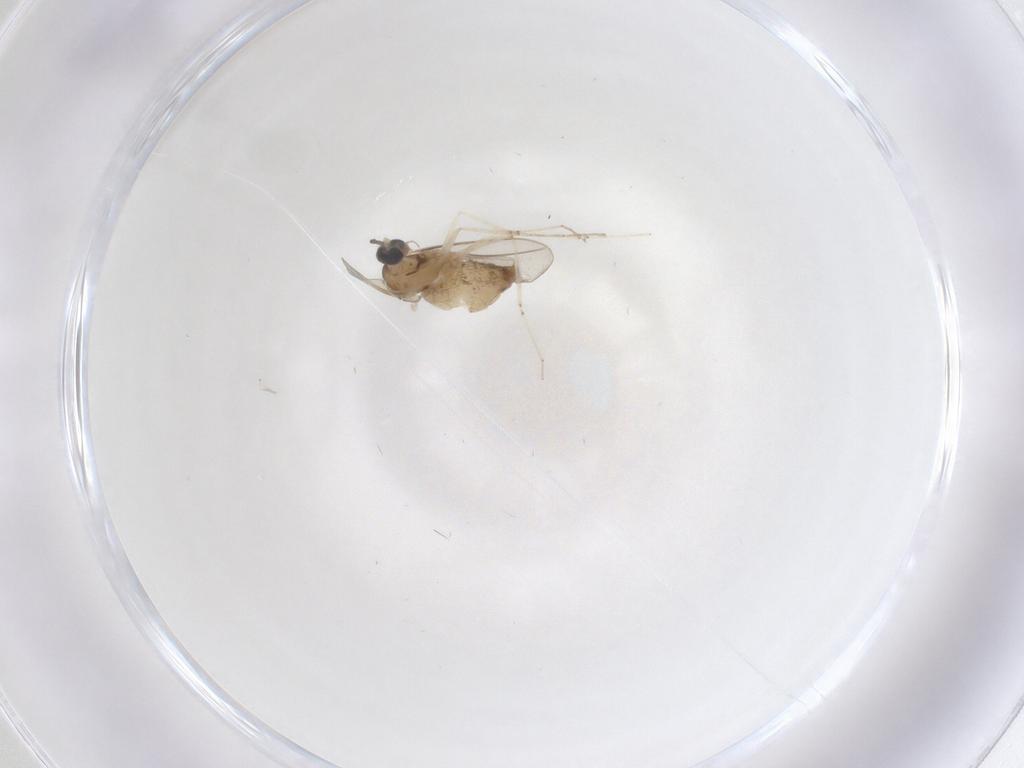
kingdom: Animalia
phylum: Arthropoda
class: Insecta
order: Diptera
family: Cecidomyiidae
